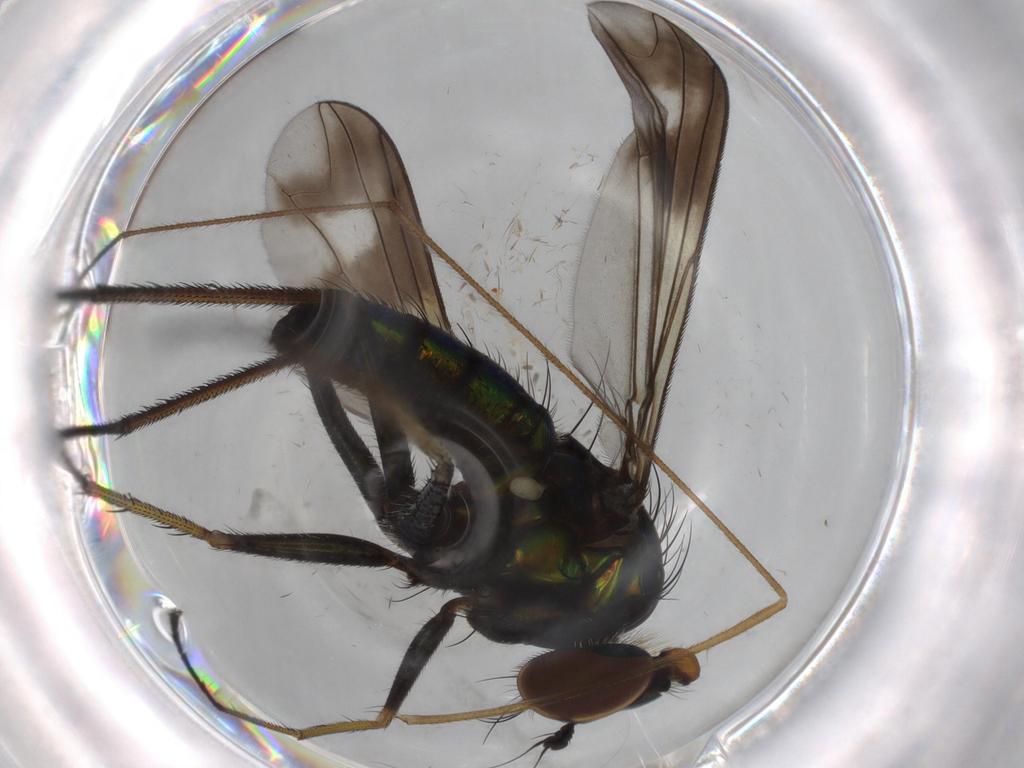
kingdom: Animalia
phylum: Arthropoda
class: Insecta
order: Diptera
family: Dolichopodidae
